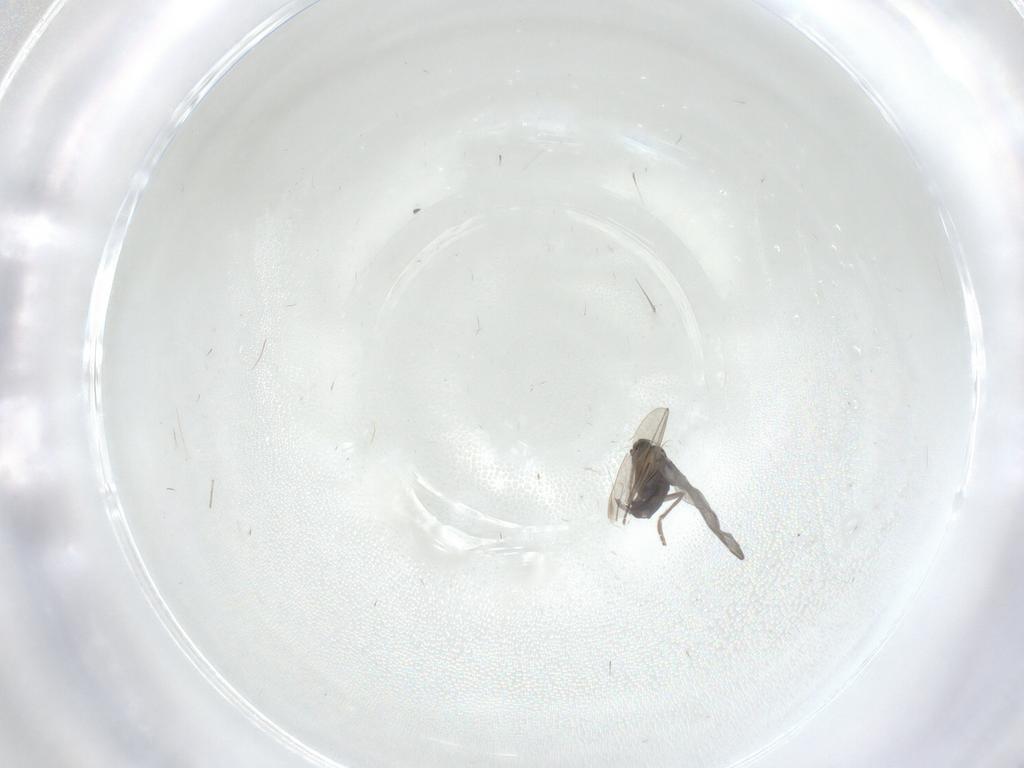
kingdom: Animalia
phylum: Arthropoda
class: Insecta
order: Diptera
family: Phoridae
